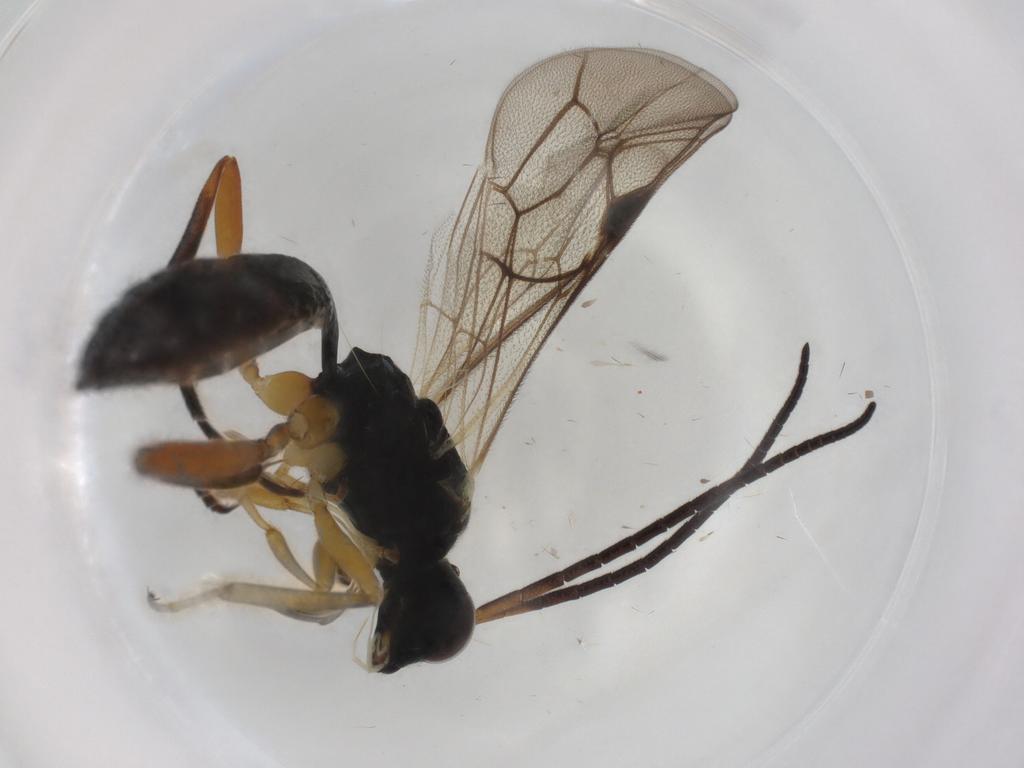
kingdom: Animalia
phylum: Arthropoda
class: Insecta
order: Hymenoptera
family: Ichneumonidae
